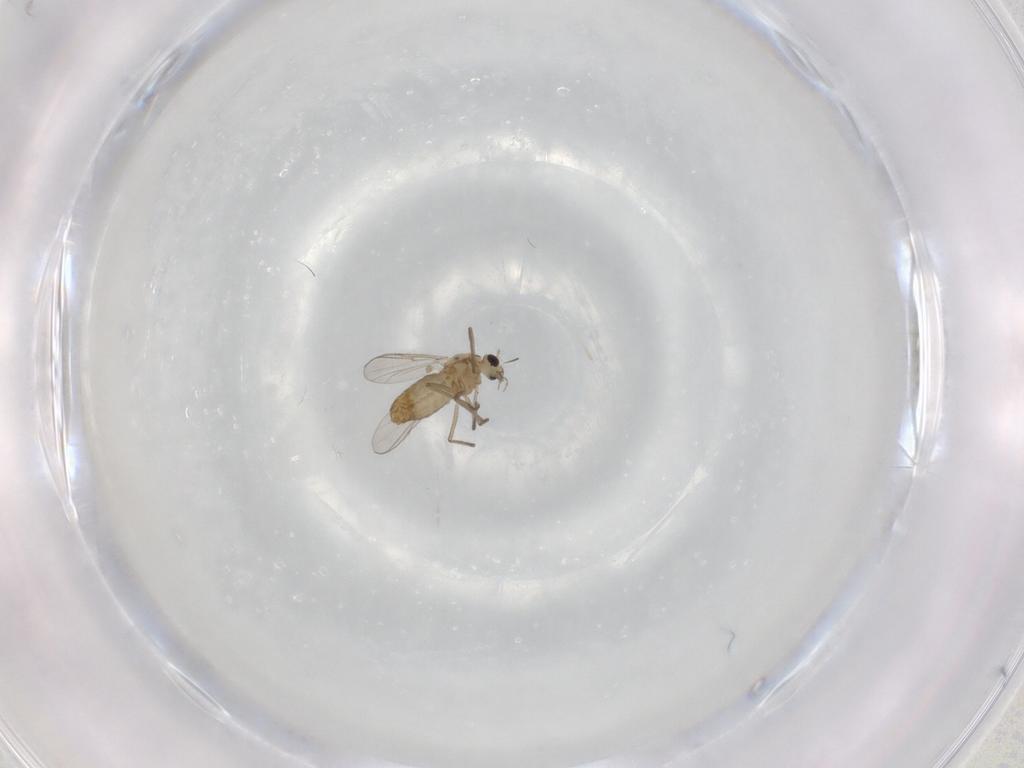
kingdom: Animalia
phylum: Arthropoda
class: Insecta
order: Diptera
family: Chironomidae
